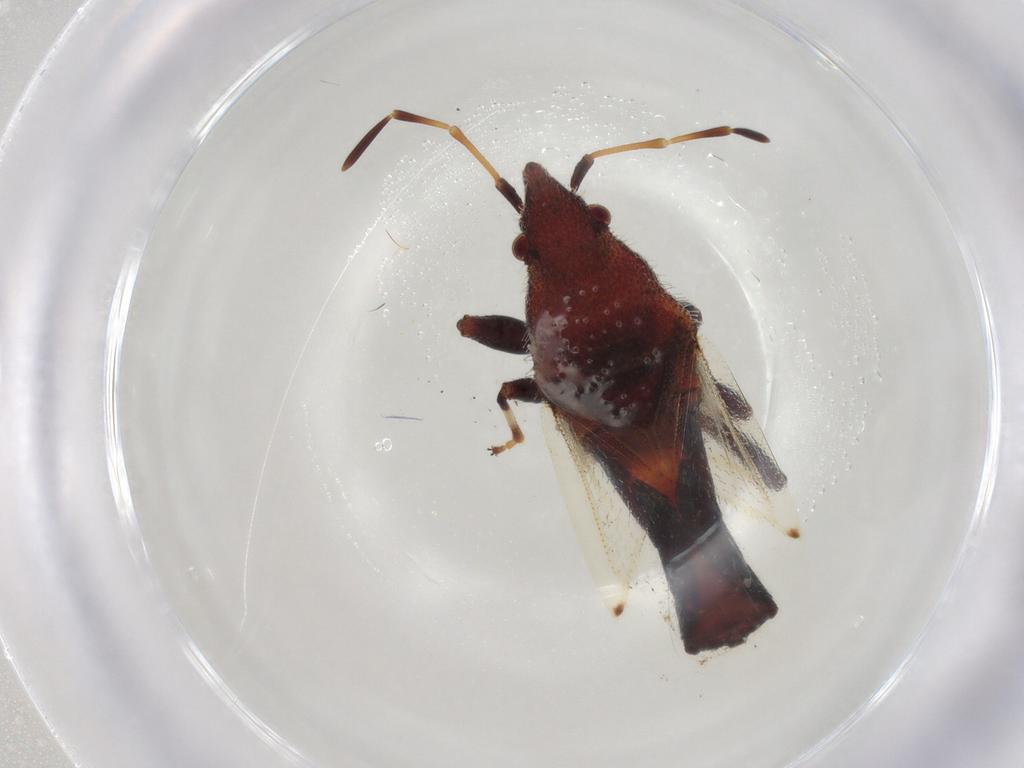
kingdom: Animalia
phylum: Arthropoda
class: Insecta
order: Hemiptera
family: Oxycarenidae
